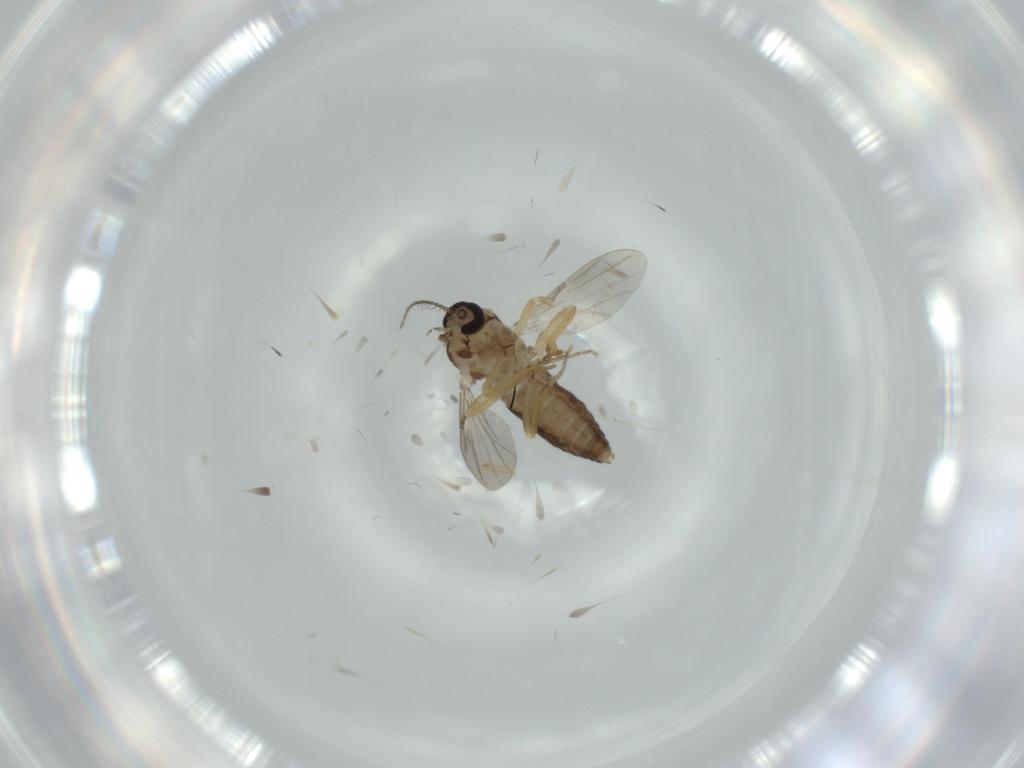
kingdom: Animalia
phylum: Arthropoda
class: Insecta
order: Diptera
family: Ceratopogonidae
